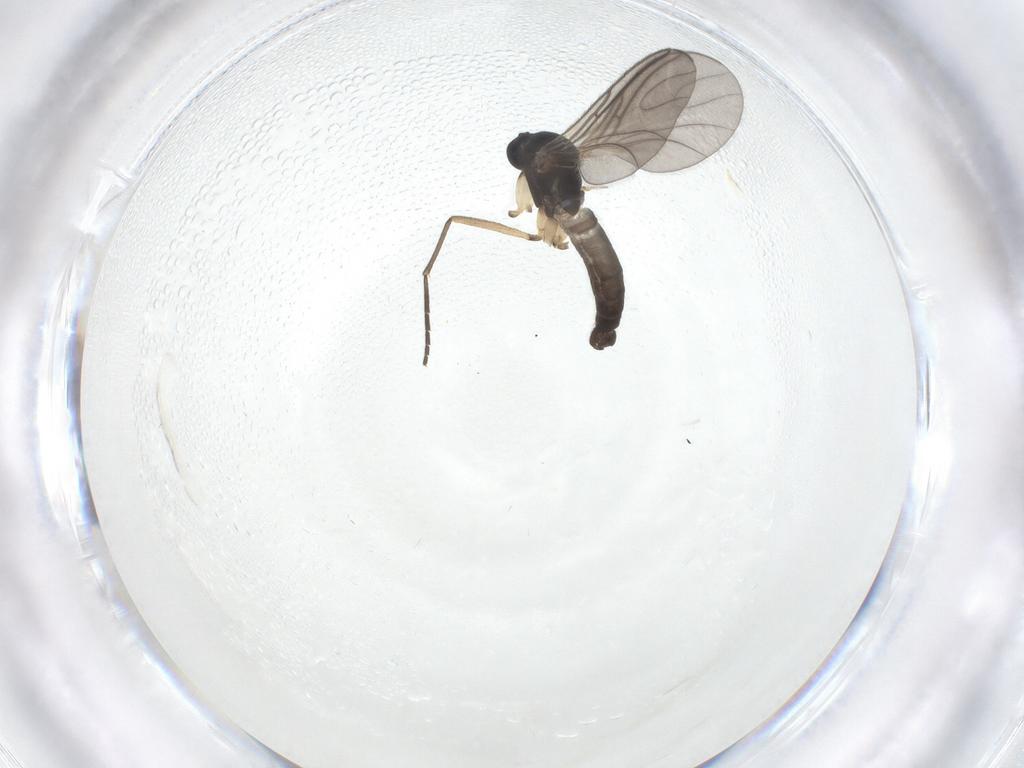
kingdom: Animalia
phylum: Arthropoda
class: Insecta
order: Diptera
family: Sciaridae
